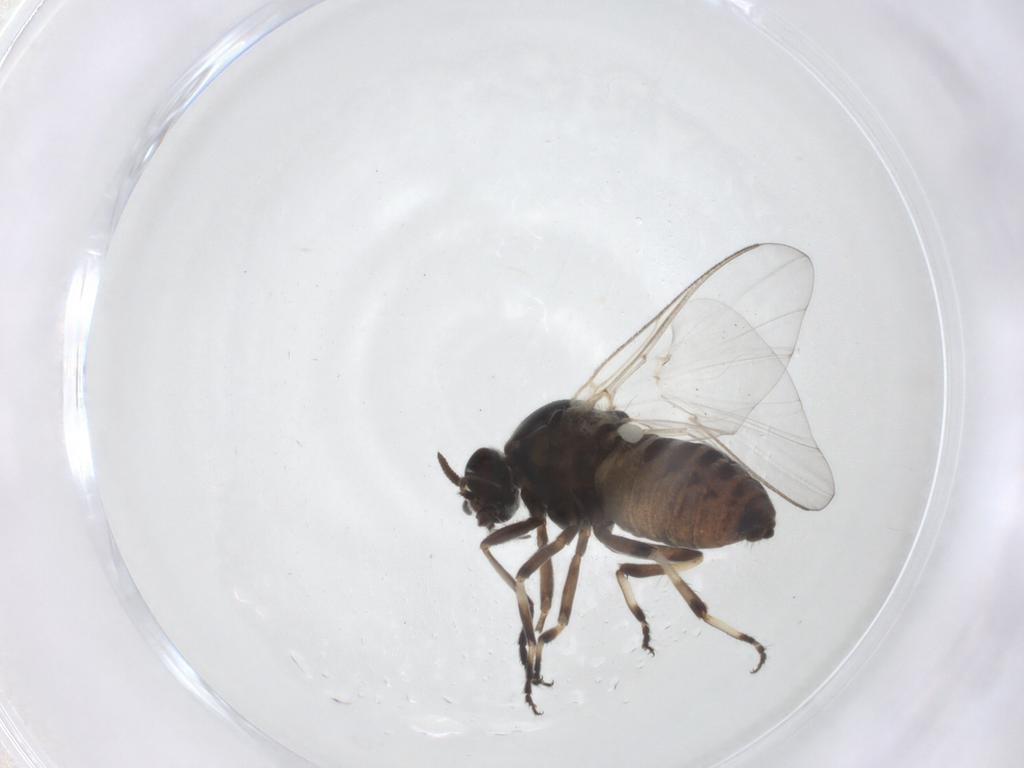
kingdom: Animalia
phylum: Arthropoda
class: Insecta
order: Diptera
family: Simuliidae
